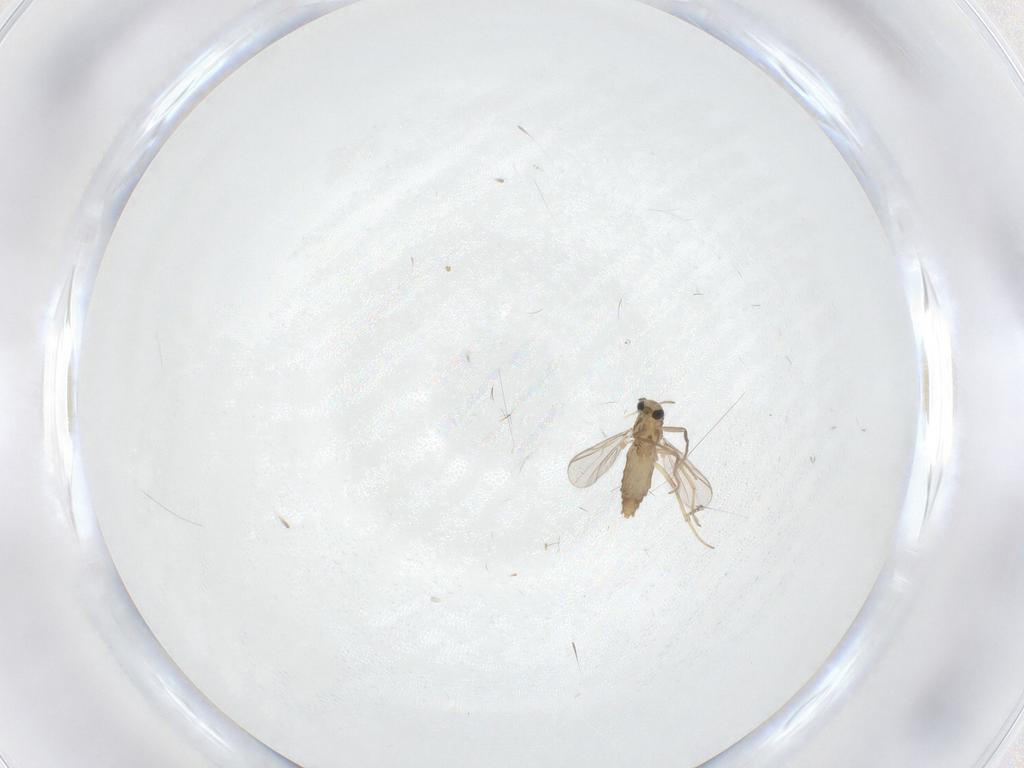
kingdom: Animalia
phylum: Arthropoda
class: Insecta
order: Diptera
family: Chironomidae
